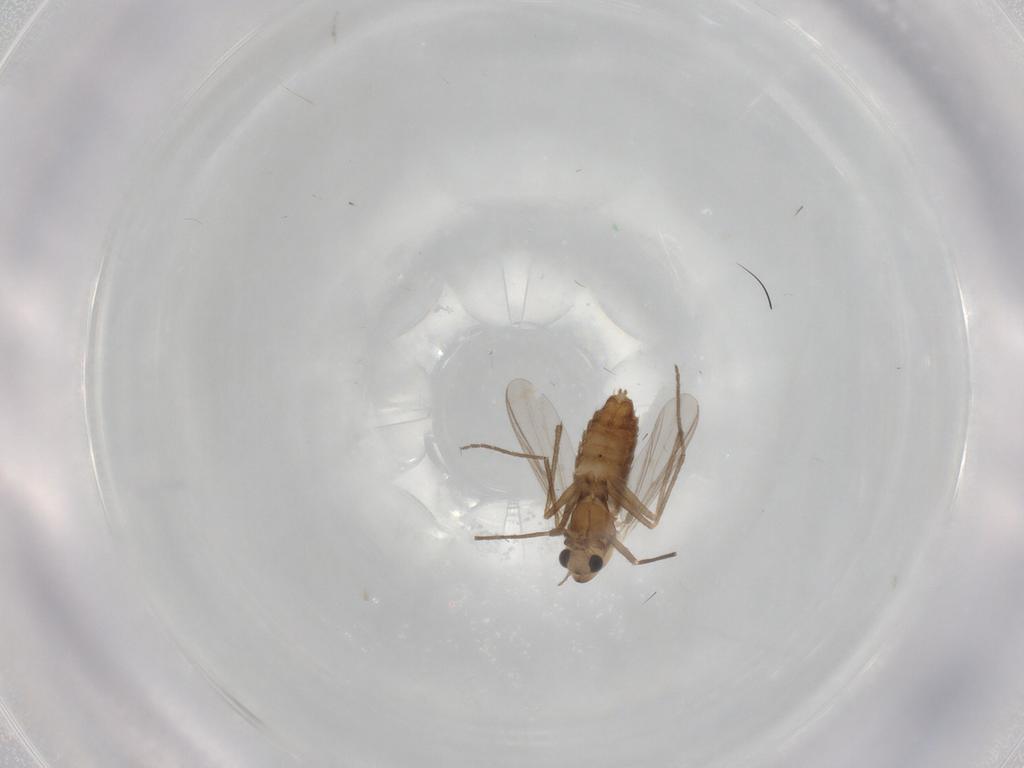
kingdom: Animalia
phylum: Arthropoda
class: Insecta
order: Diptera
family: Chironomidae
